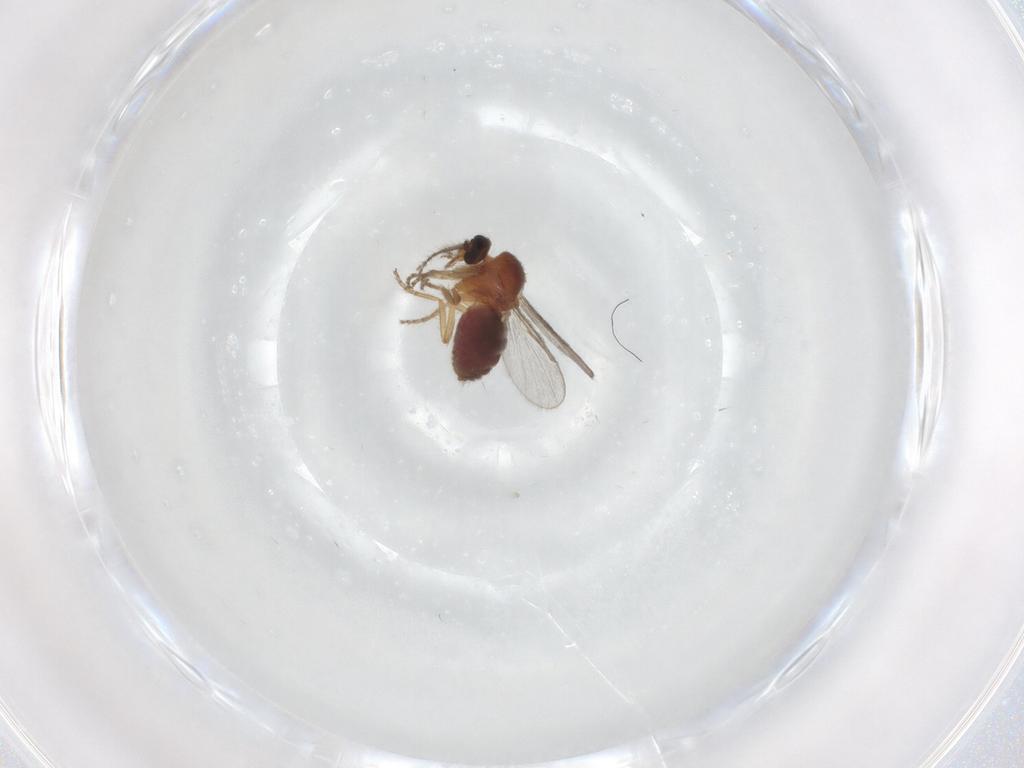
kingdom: Animalia
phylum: Arthropoda
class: Insecta
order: Diptera
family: Ceratopogonidae
